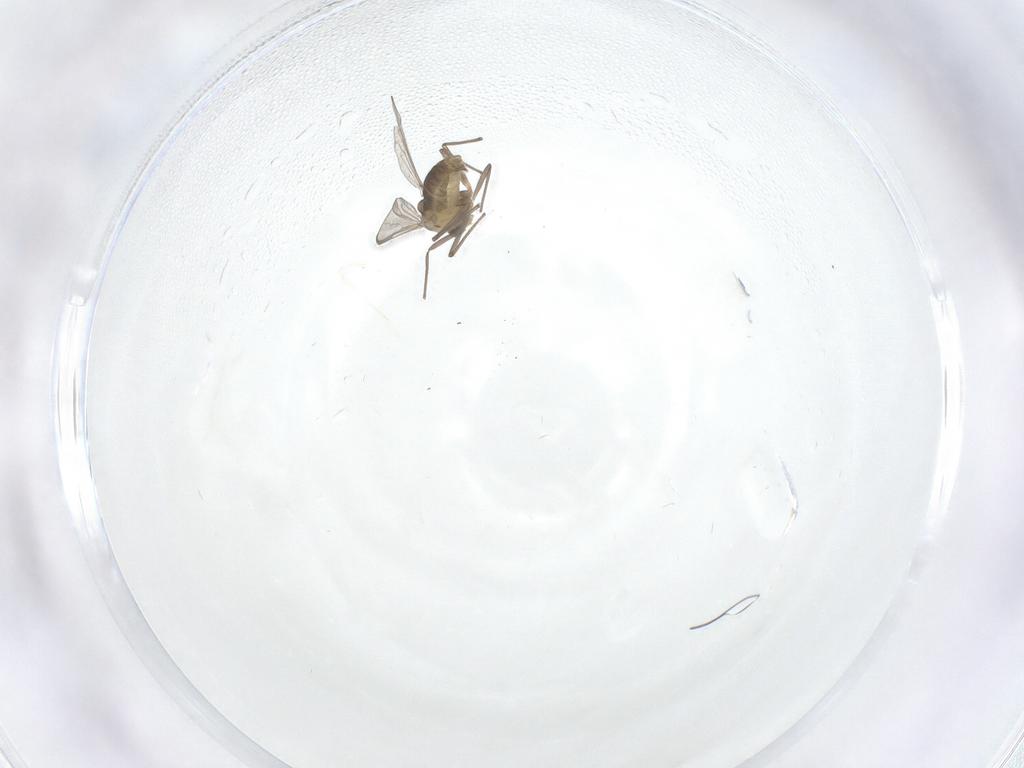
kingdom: Animalia
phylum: Arthropoda
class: Insecta
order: Diptera
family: Chironomidae
